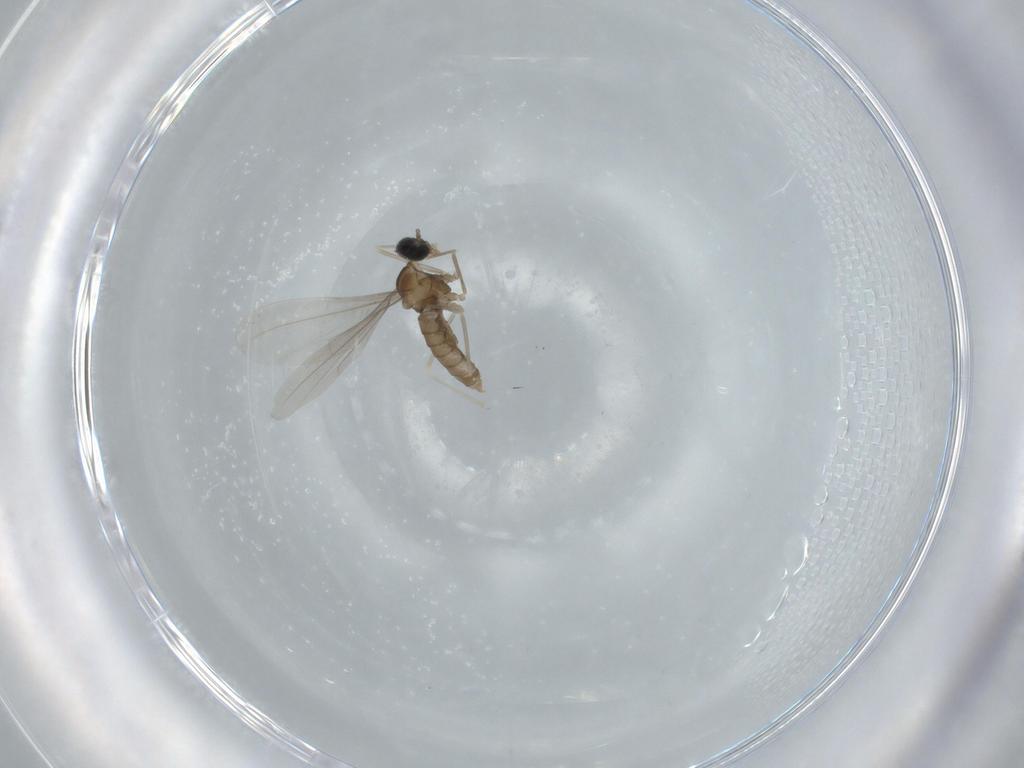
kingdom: Animalia
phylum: Arthropoda
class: Insecta
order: Diptera
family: Cecidomyiidae
